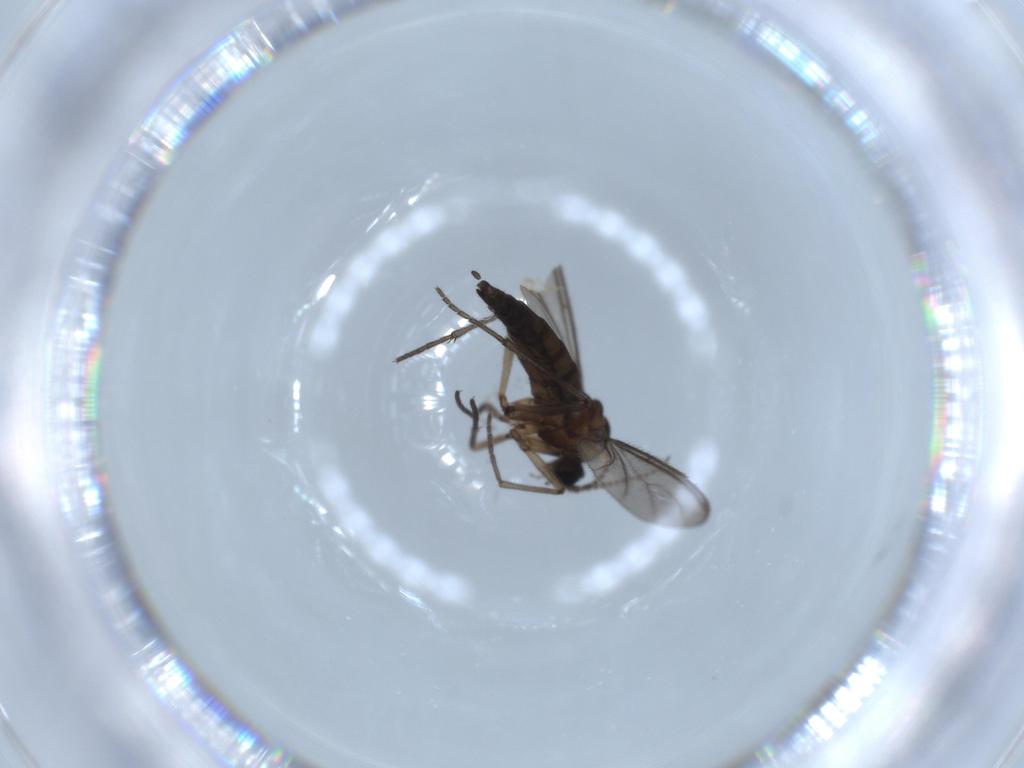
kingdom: Animalia
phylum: Arthropoda
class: Insecta
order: Diptera
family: Sciaridae
